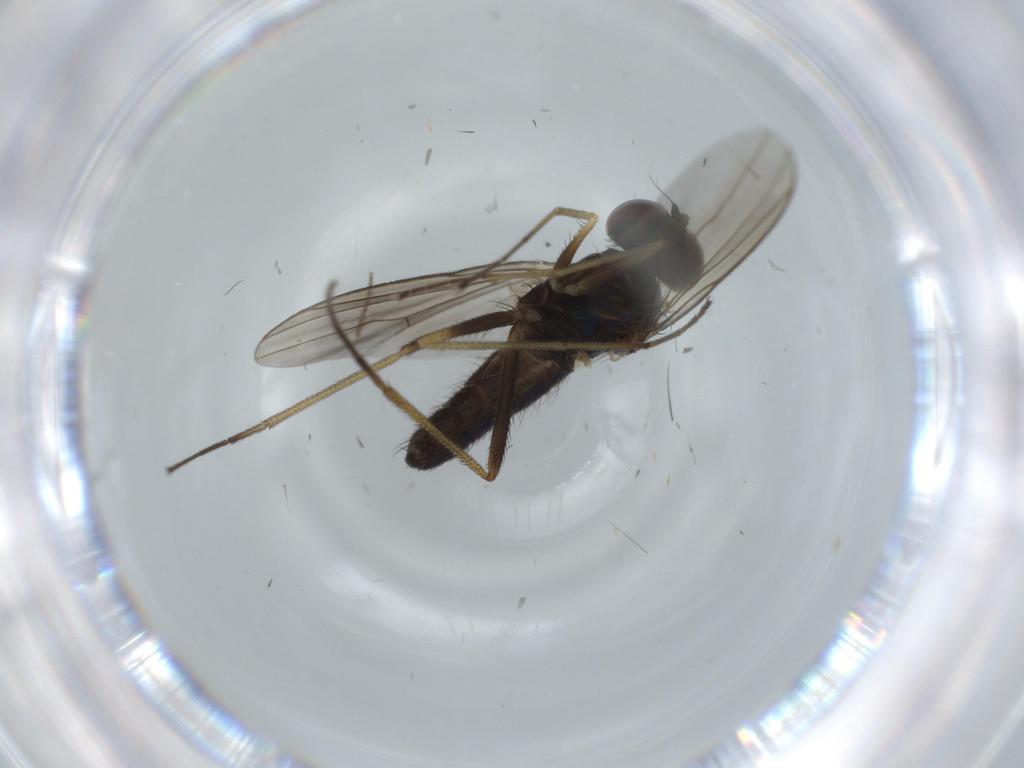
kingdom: Animalia
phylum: Arthropoda
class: Insecta
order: Diptera
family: Dolichopodidae
